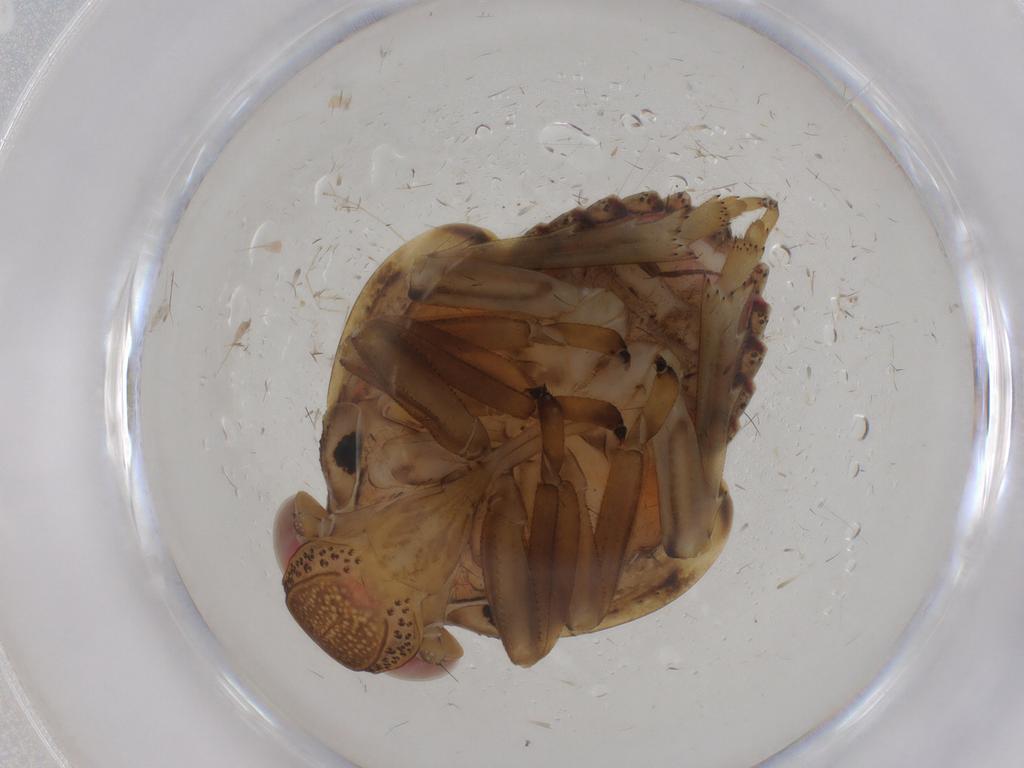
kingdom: Animalia
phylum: Arthropoda
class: Insecta
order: Hemiptera
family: Issidae
